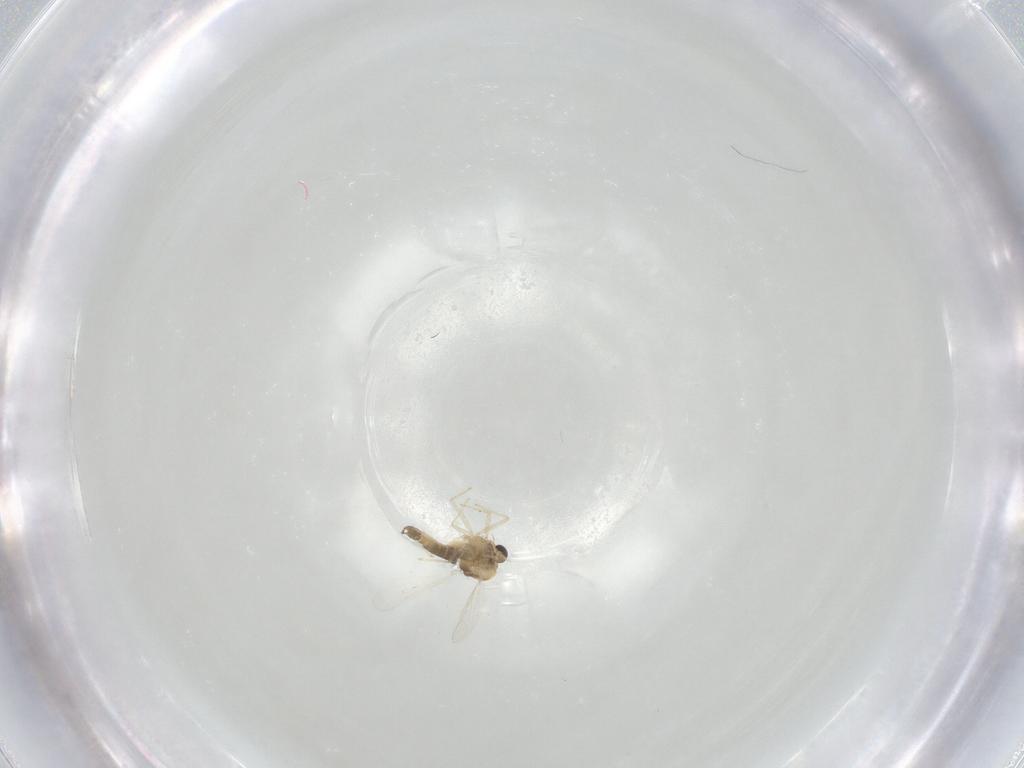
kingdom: Animalia
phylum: Arthropoda
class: Insecta
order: Diptera
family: Chironomidae
